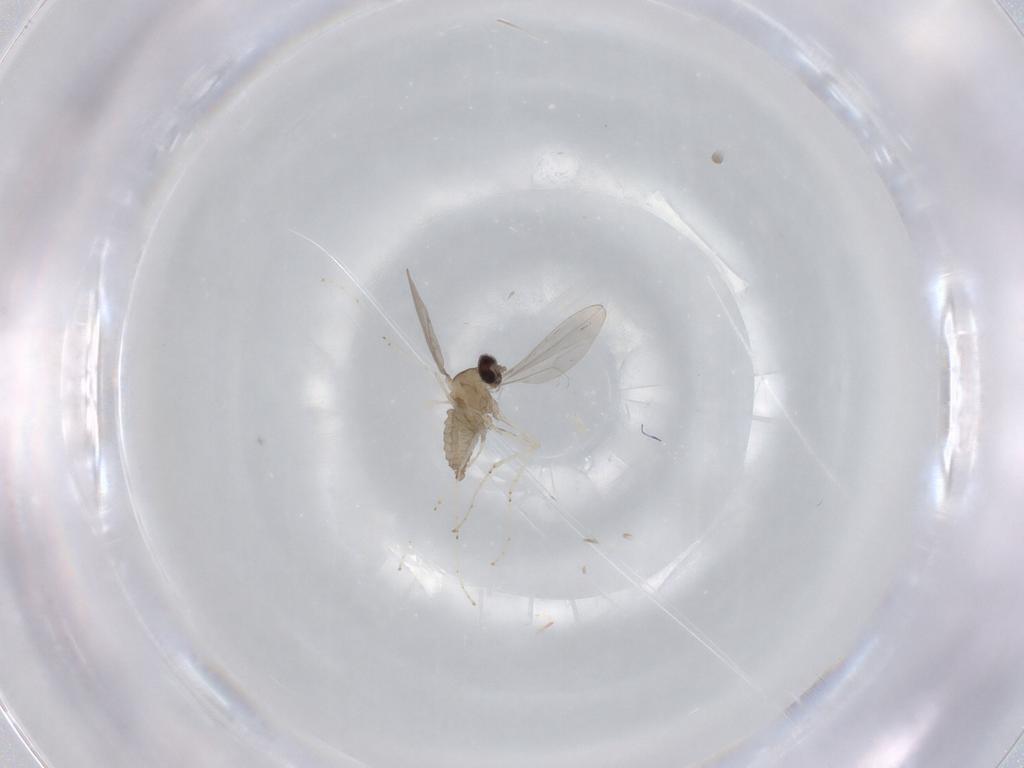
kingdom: Animalia
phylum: Arthropoda
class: Insecta
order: Diptera
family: Cecidomyiidae
